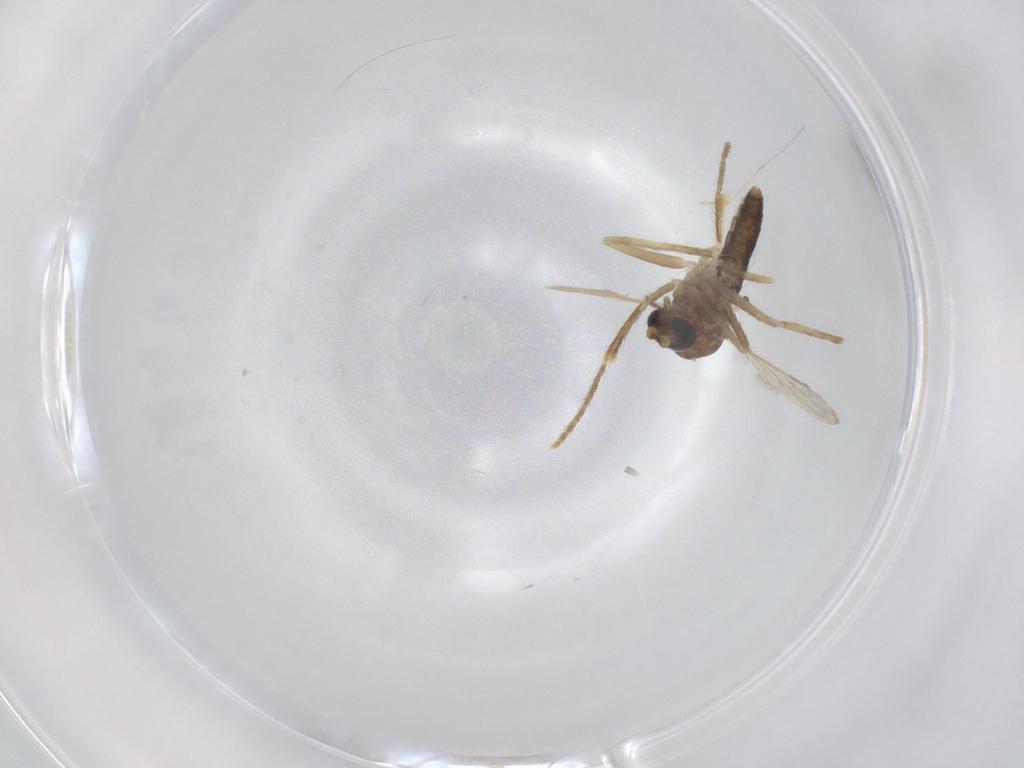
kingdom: Animalia
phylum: Arthropoda
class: Insecta
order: Diptera
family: Corethrellidae
